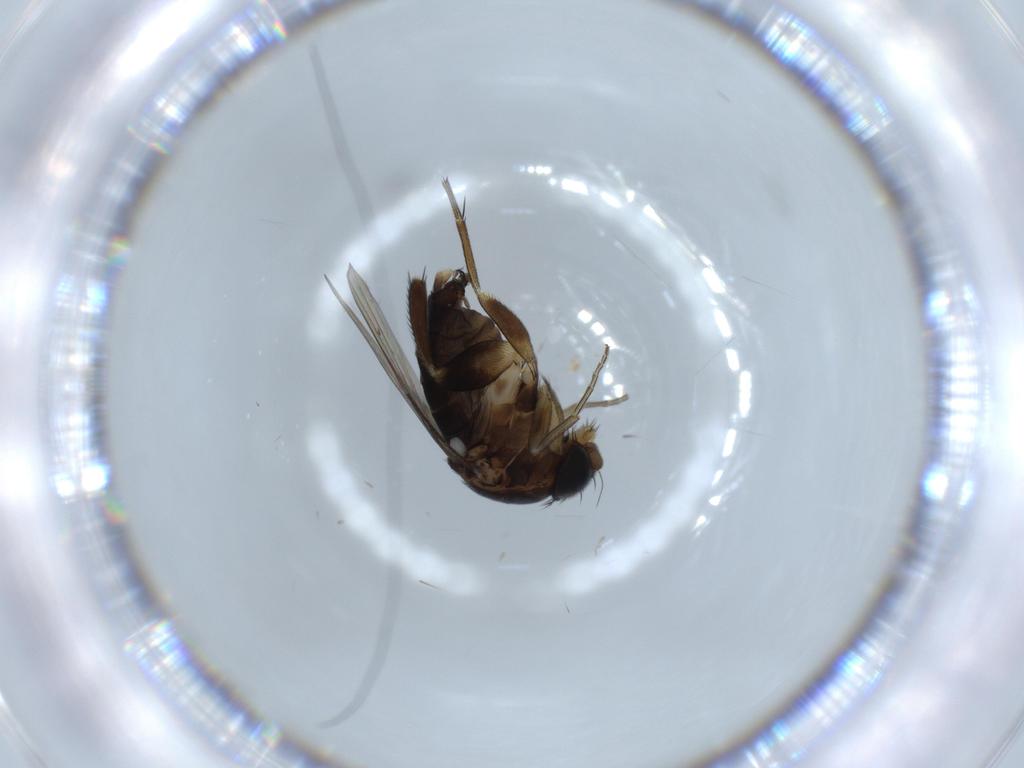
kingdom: Animalia
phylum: Arthropoda
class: Insecta
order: Diptera
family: Phoridae
